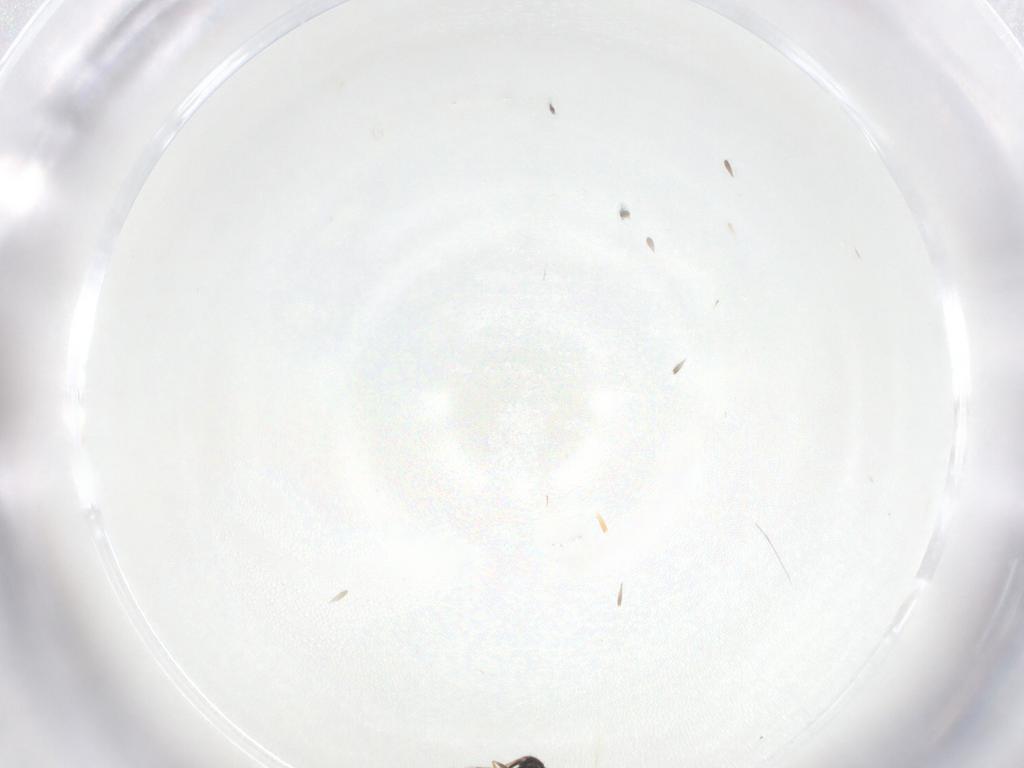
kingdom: Animalia
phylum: Arthropoda
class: Insecta
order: Hymenoptera
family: Eulophidae
